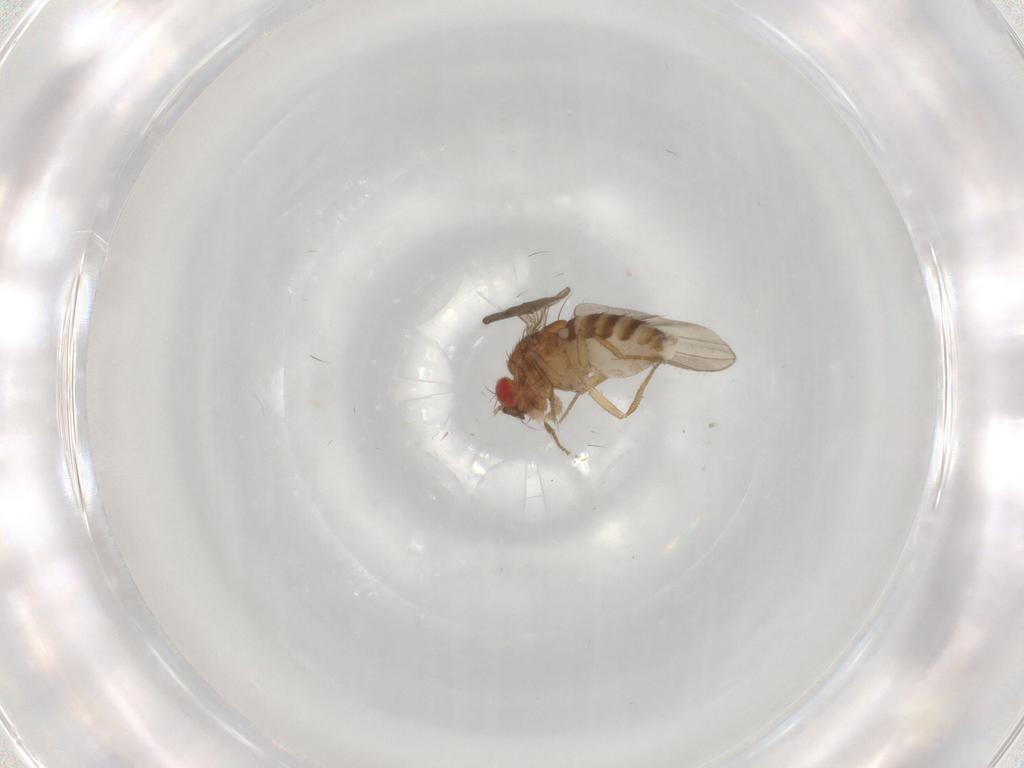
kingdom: Animalia
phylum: Arthropoda
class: Insecta
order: Diptera
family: Drosophilidae
